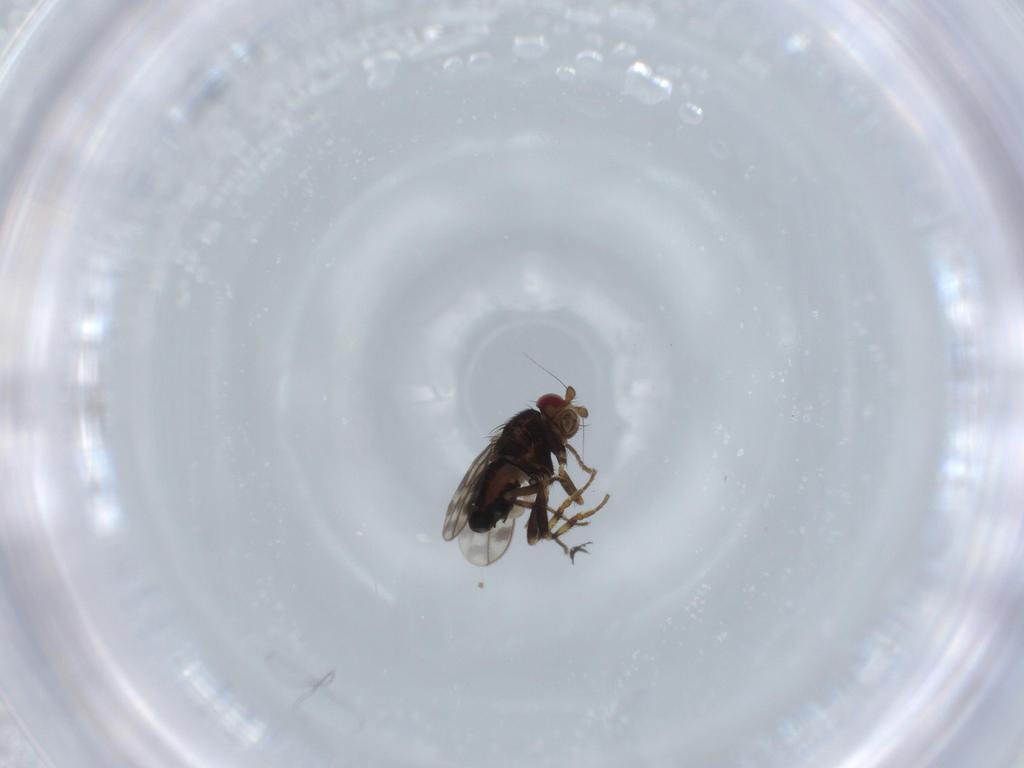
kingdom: Animalia
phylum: Arthropoda
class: Insecta
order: Diptera
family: Sphaeroceridae
